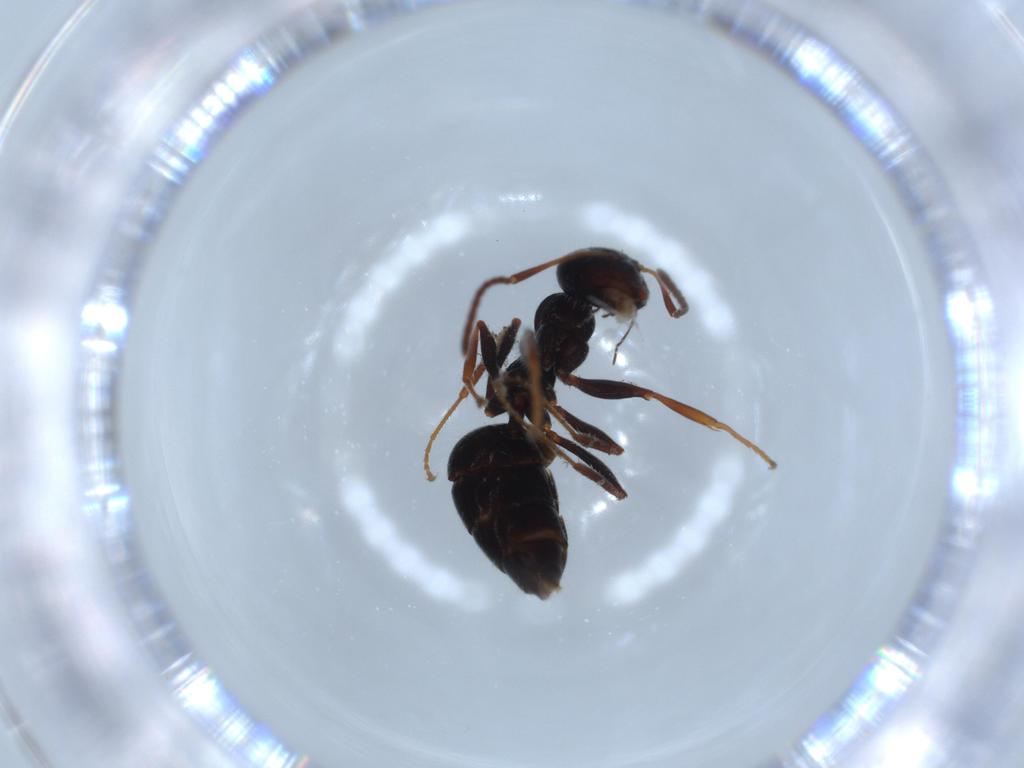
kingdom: Animalia
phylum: Arthropoda
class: Insecta
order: Hymenoptera
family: Formicidae
